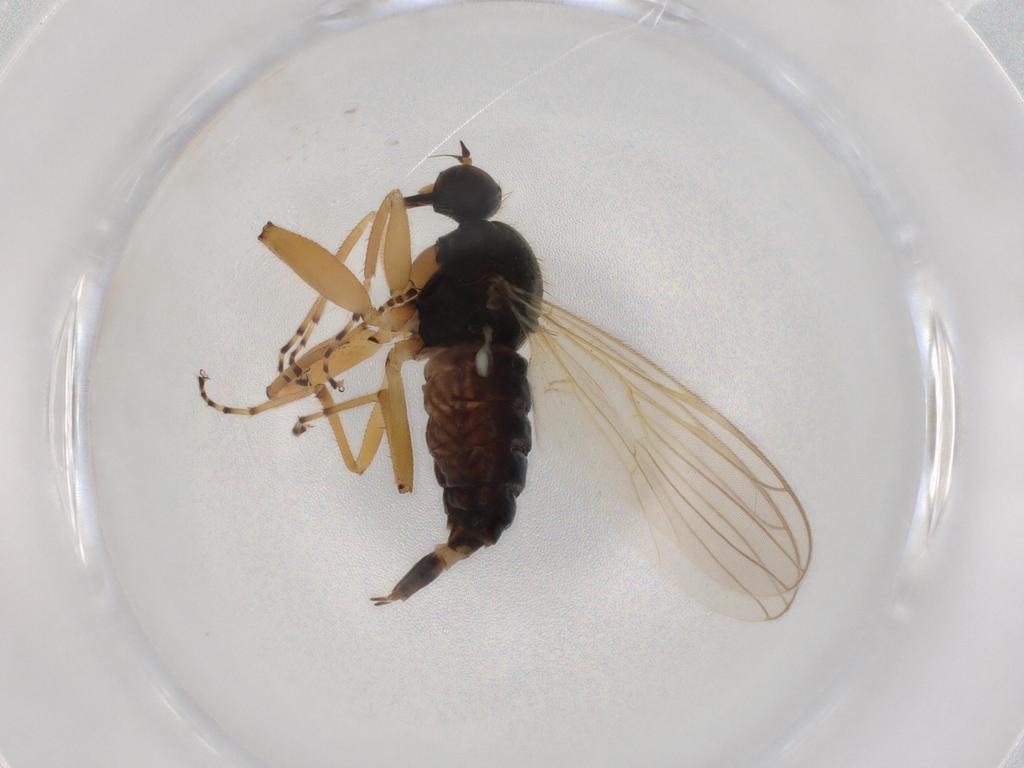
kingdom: Animalia
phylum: Arthropoda
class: Insecta
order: Diptera
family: Hybotidae
